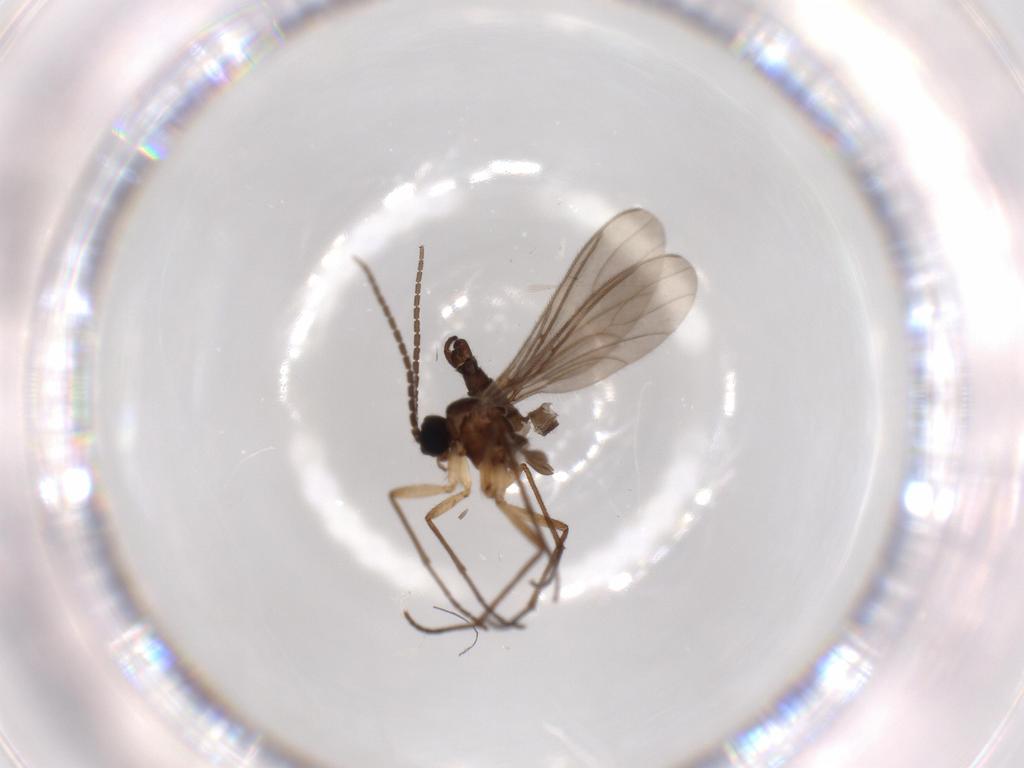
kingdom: Animalia
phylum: Arthropoda
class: Insecta
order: Diptera
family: Sciaridae
